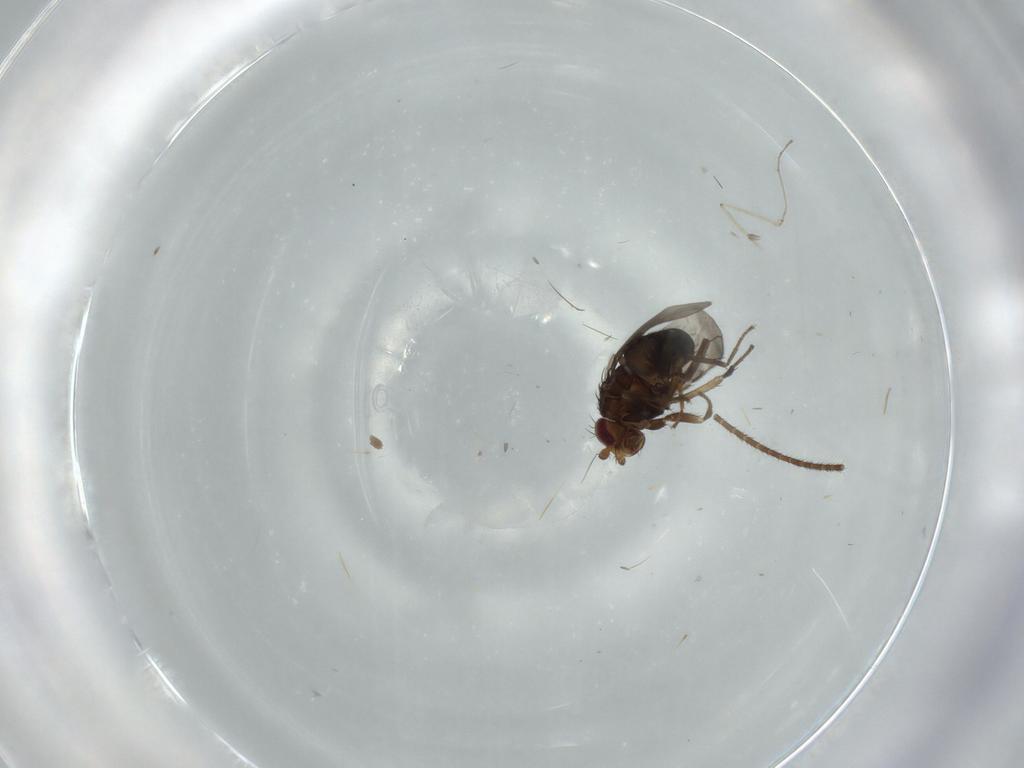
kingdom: Animalia
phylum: Arthropoda
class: Insecta
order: Diptera
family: Cecidomyiidae
